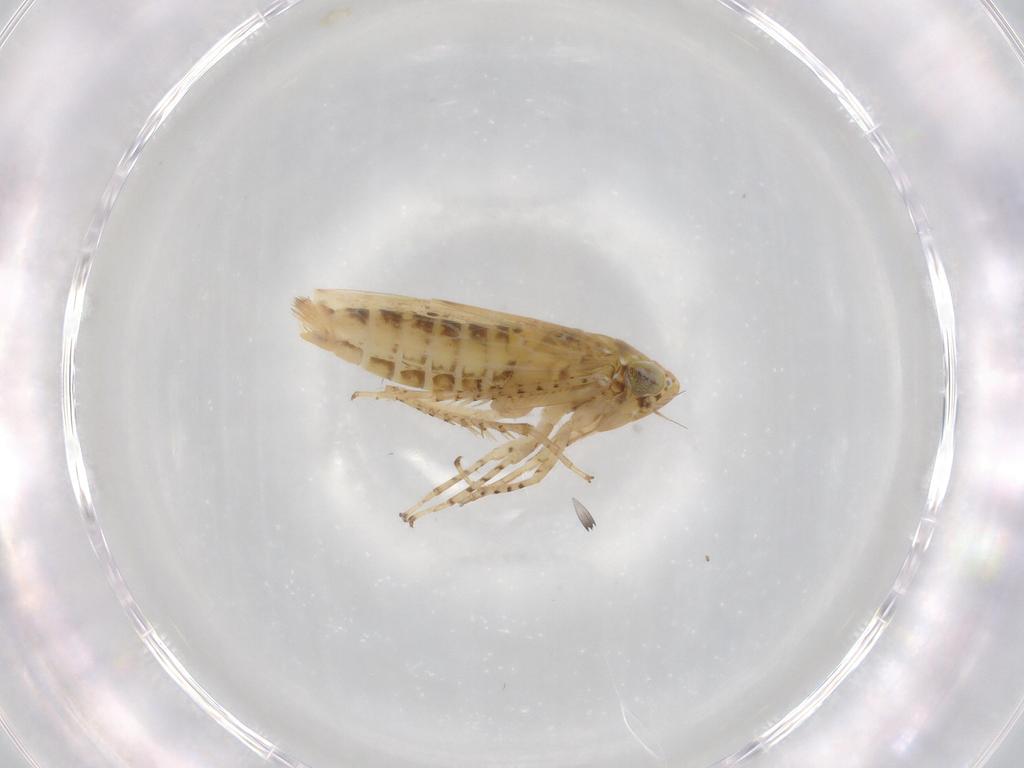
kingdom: Animalia
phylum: Arthropoda
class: Insecta
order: Hemiptera
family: Cicadellidae
